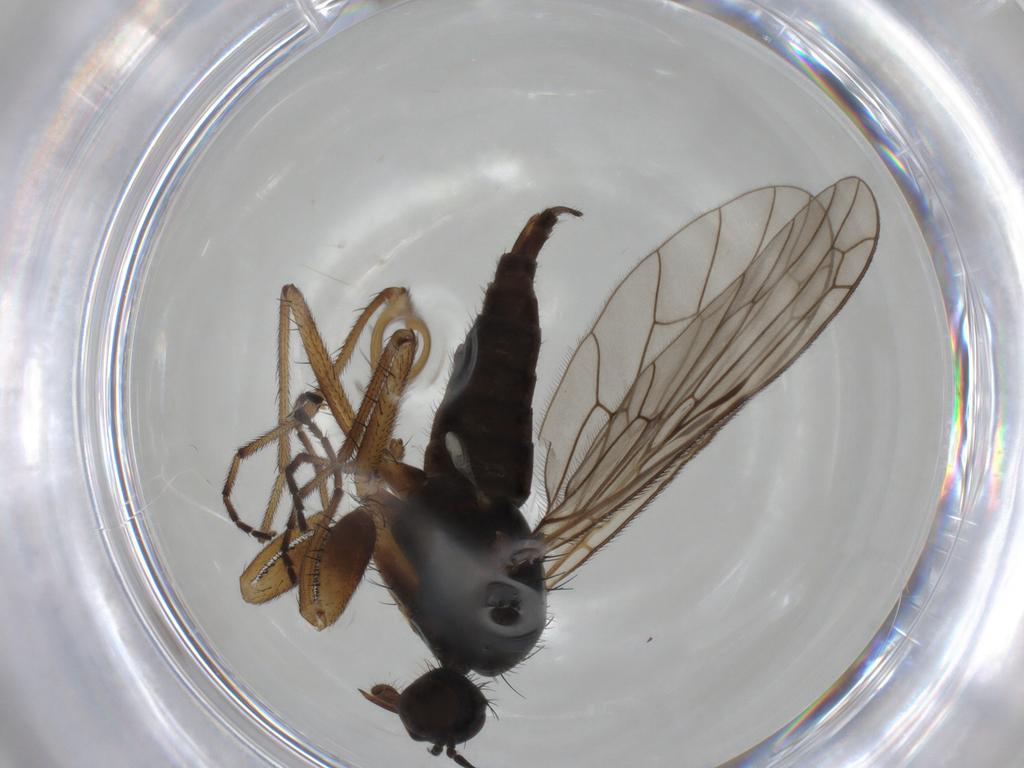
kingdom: Animalia
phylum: Arthropoda
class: Insecta
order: Diptera
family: Empididae
